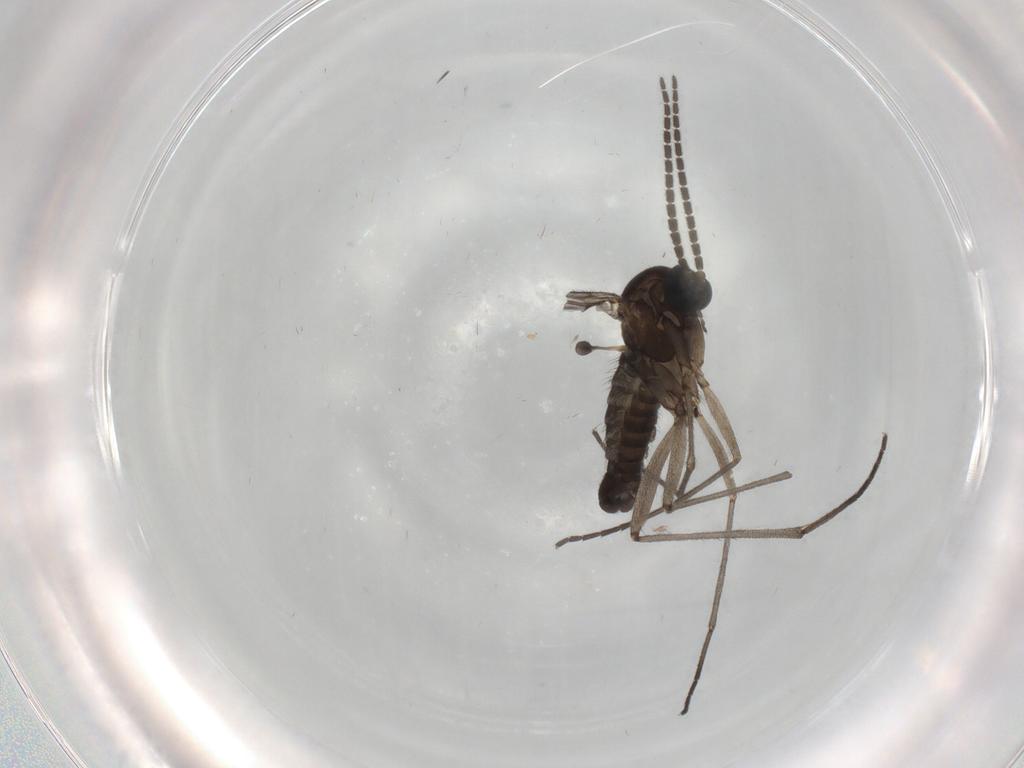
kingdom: Animalia
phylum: Arthropoda
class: Insecta
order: Diptera
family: Sciaridae
